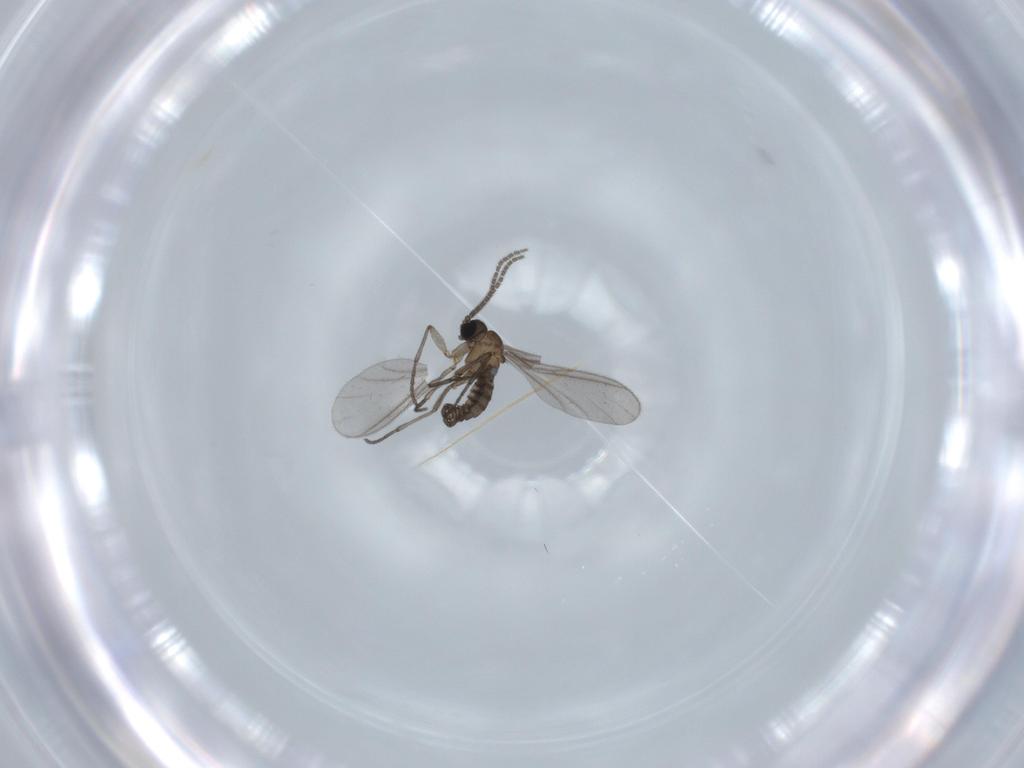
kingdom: Animalia
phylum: Arthropoda
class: Insecta
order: Diptera
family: Sciaridae
